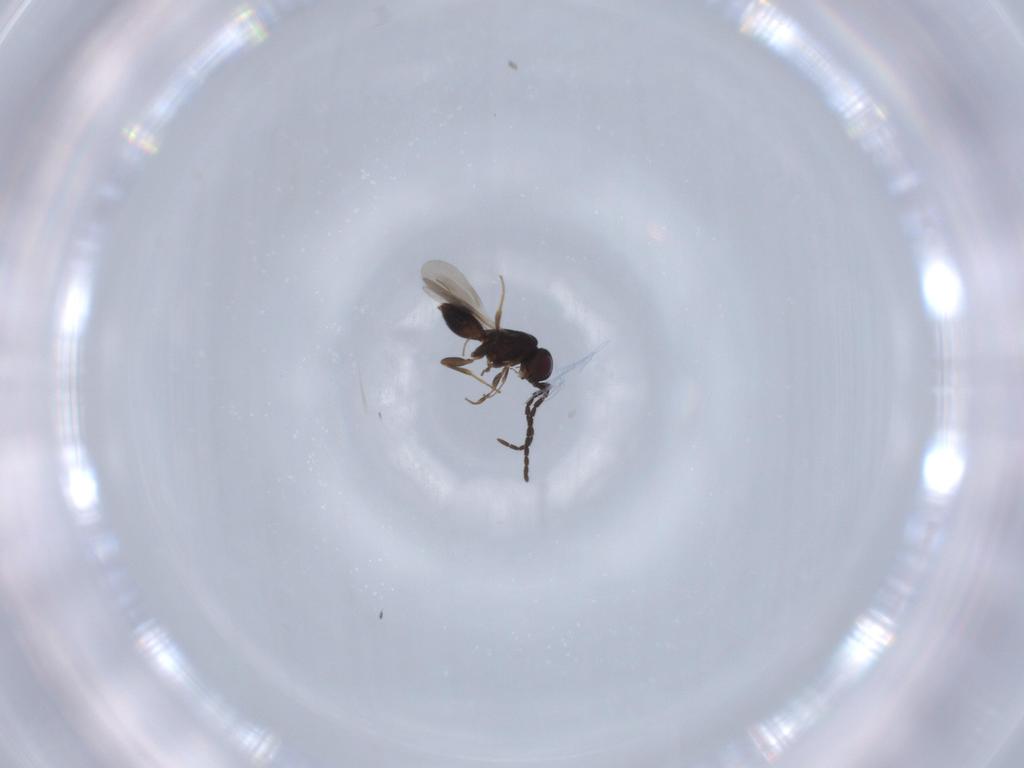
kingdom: Animalia
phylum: Arthropoda
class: Insecta
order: Hymenoptera
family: Megaspilidae
